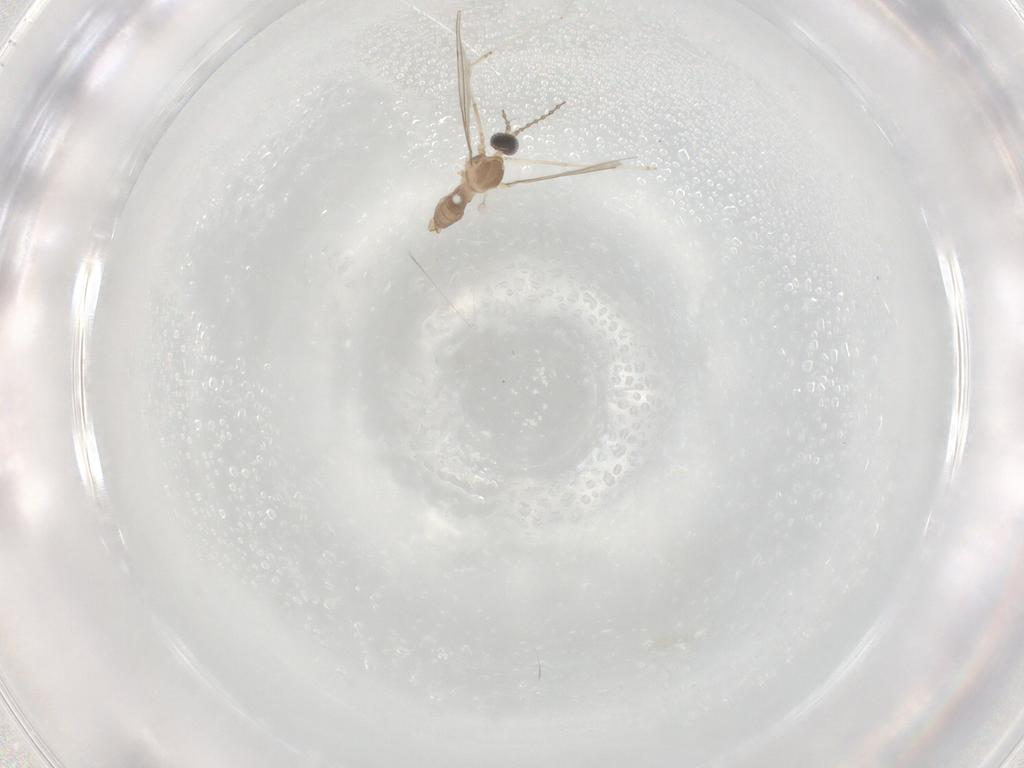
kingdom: Animalia
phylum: Arthropoda
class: Insecta
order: Diptera
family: Cecidomyiidae
